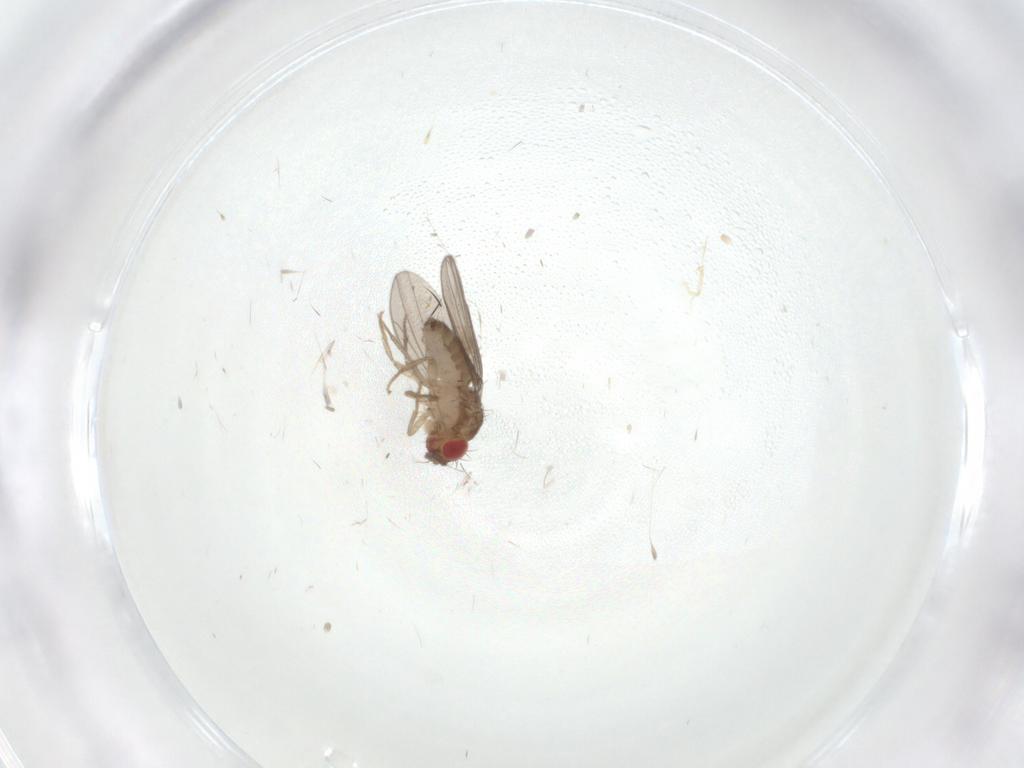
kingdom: Animalia
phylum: Arthropoda
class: Insecta
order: Diptera
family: Drosophilidae
